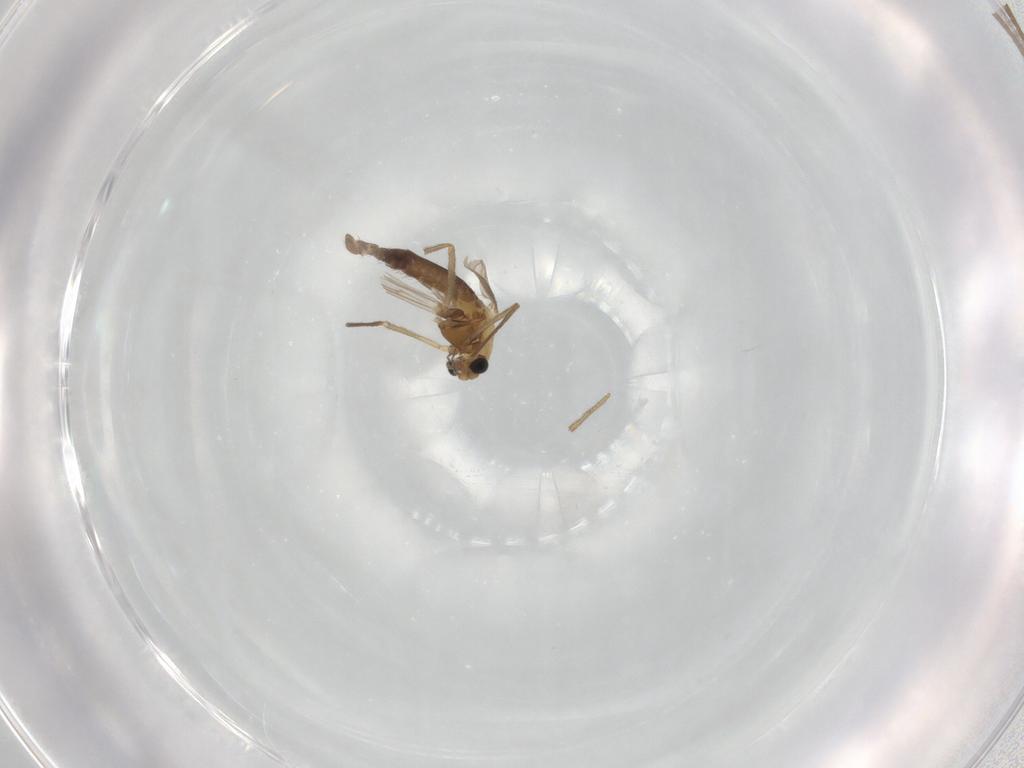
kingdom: Animalia
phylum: Arthropoda
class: Insecta
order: Diptera
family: Chironomidae
